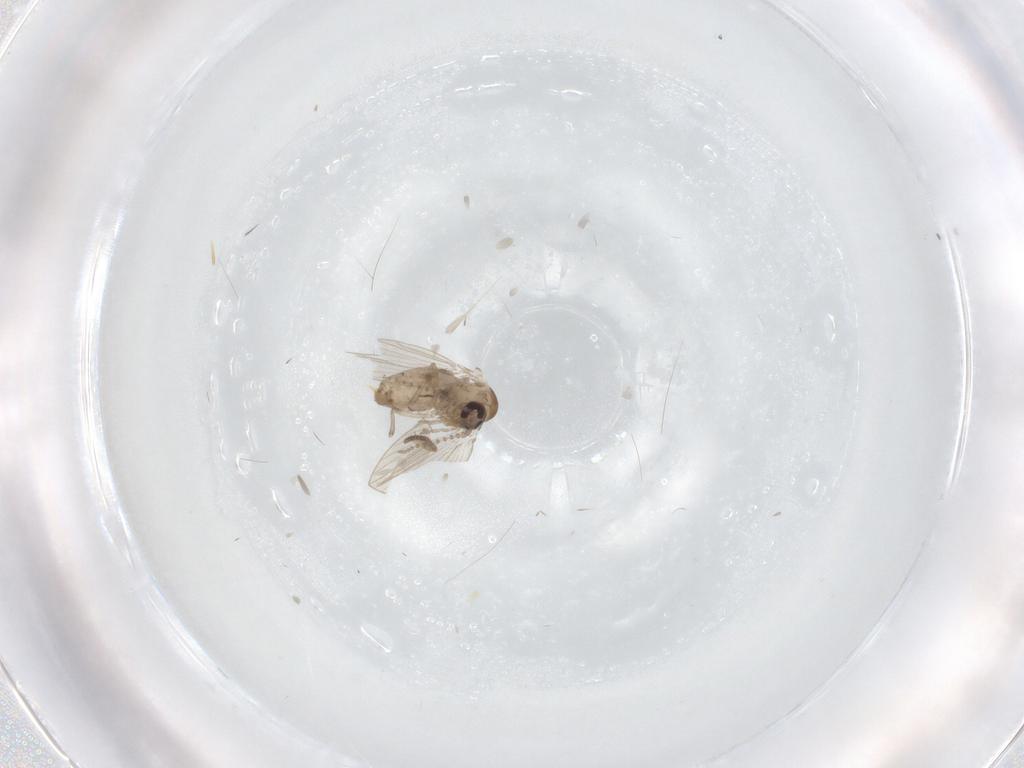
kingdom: Animalia
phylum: Arthropoda
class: Insecta
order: Diptera
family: Psychodidae
